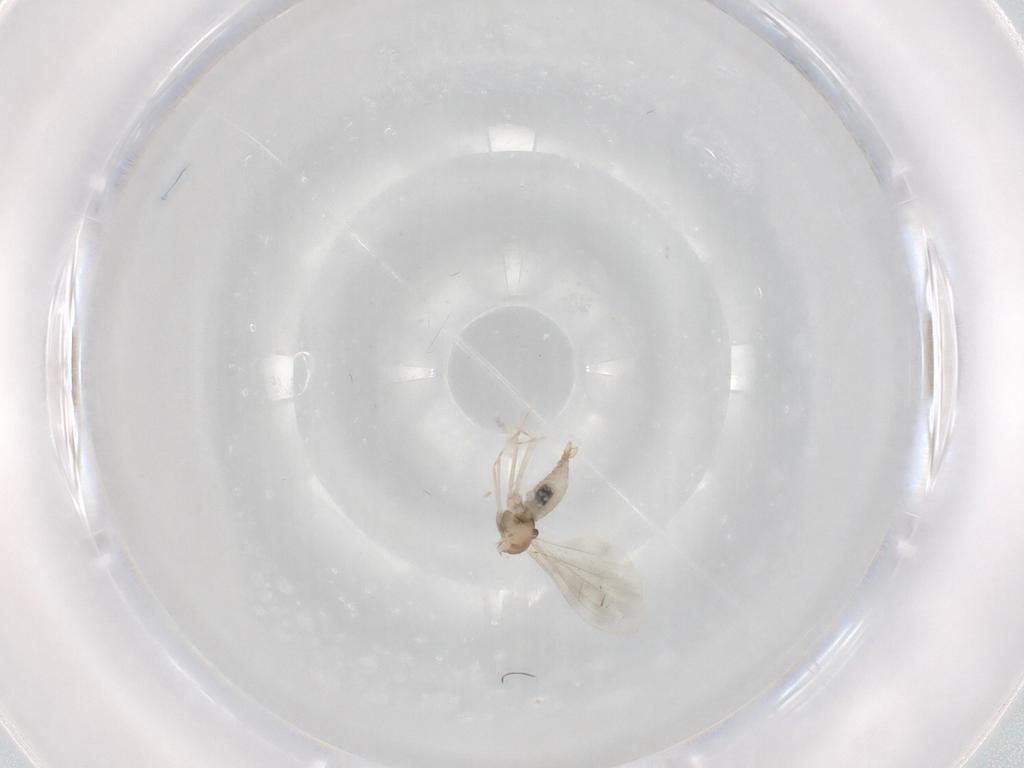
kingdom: Animalia
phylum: Arthropoda
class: Insecta
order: Diptera
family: Cecidomyiidae
